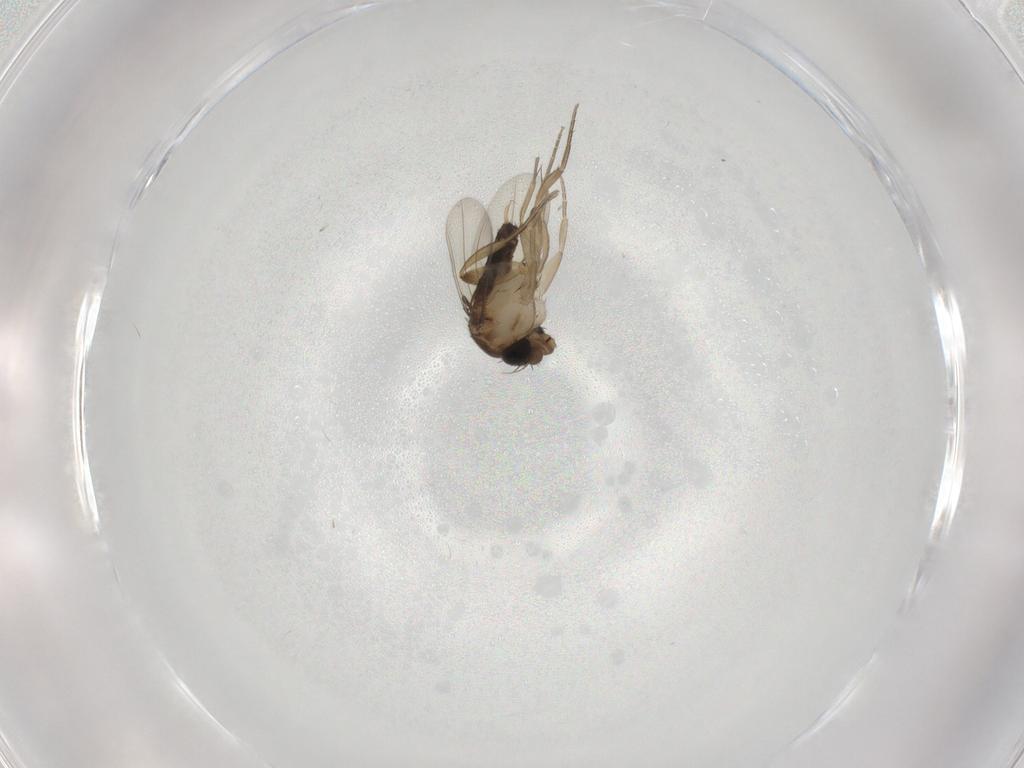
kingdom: Animalia
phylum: Arthropoda
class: Insecta
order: Diptera
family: Phoridae
